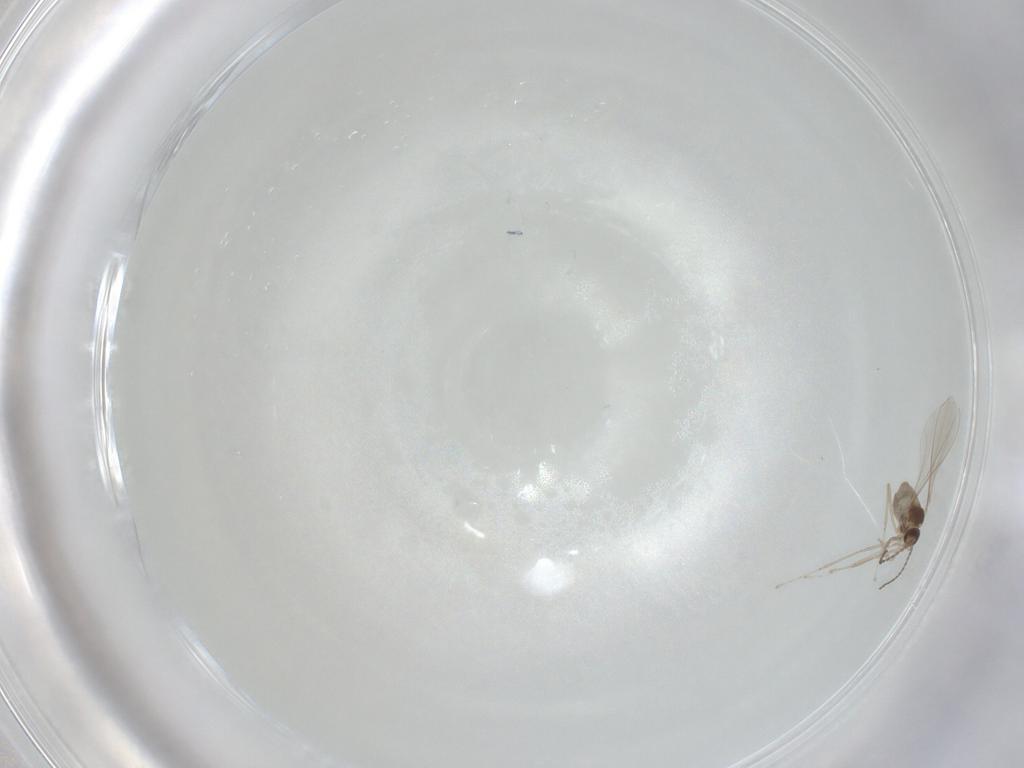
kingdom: Animalia
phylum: Arthropoda
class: Insecta
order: Diptera
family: Cecidomyiidae
